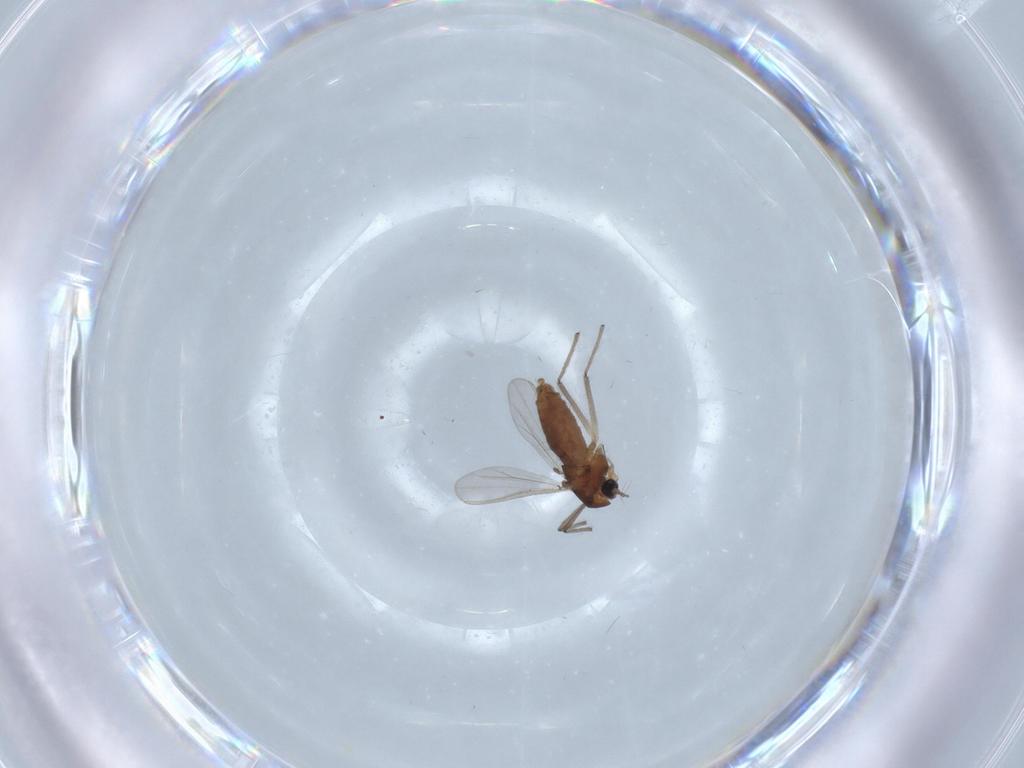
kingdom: Animalia
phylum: Arthropoda
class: Insecta
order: Diptera
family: Chironomidae
